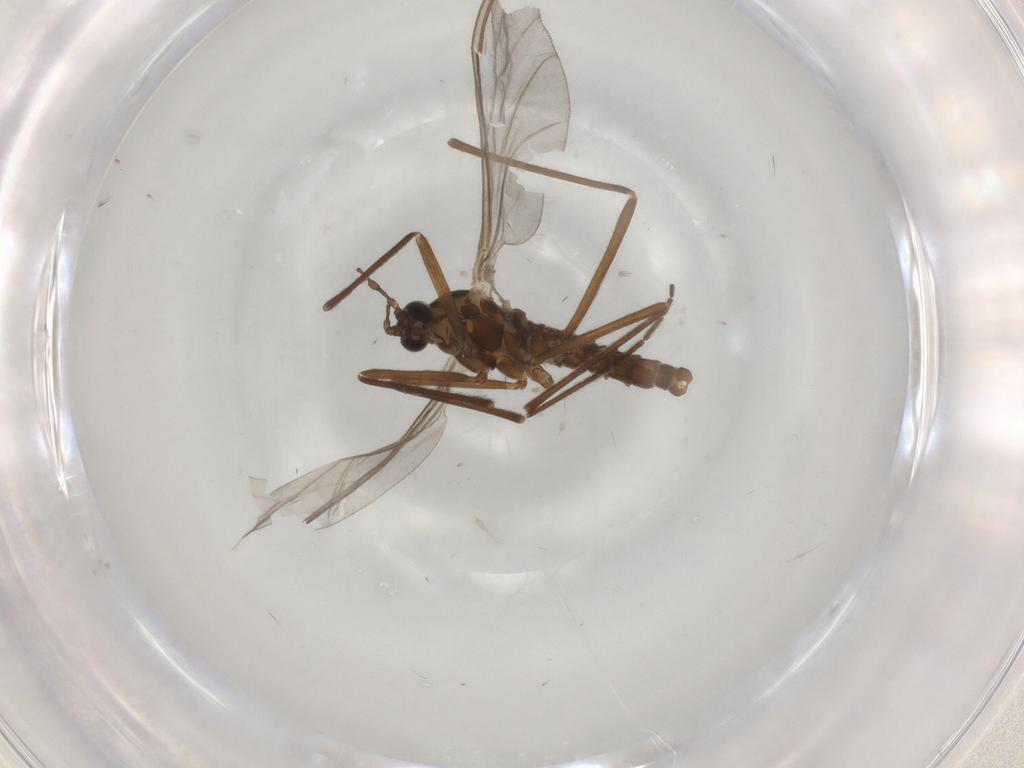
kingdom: Animalia
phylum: Arthropoda
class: Insecta
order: Diptera
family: Cecidomyiidae
